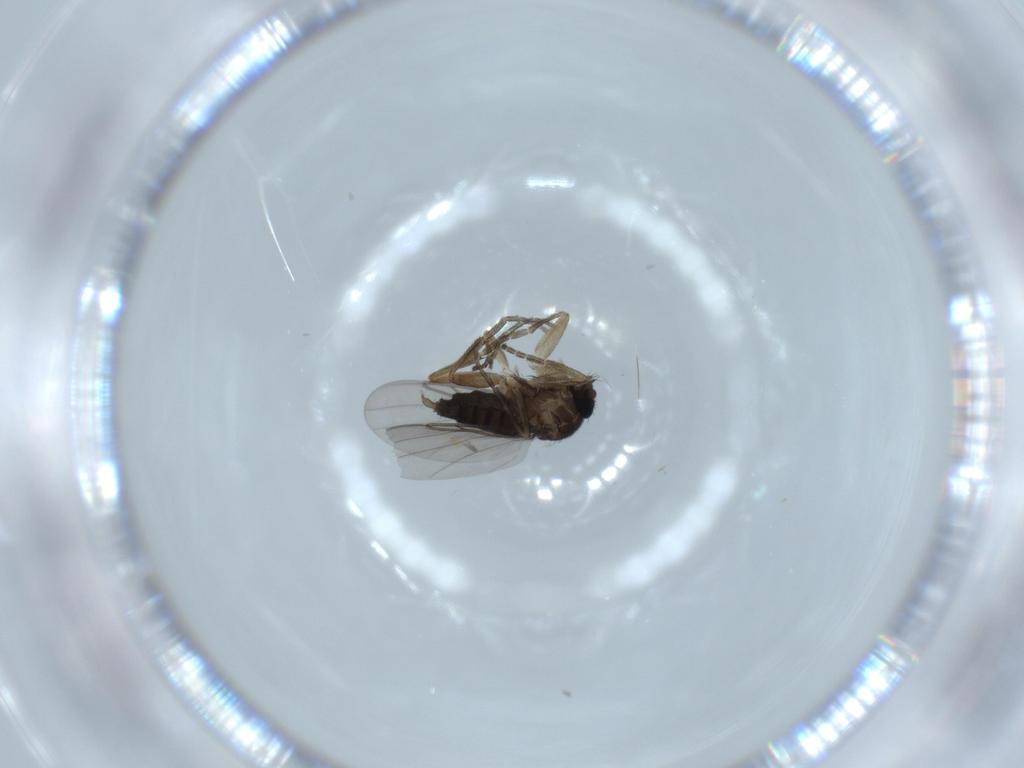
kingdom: Animalia
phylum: Arthropoda
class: Insecta
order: Diptera
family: Phoridae
